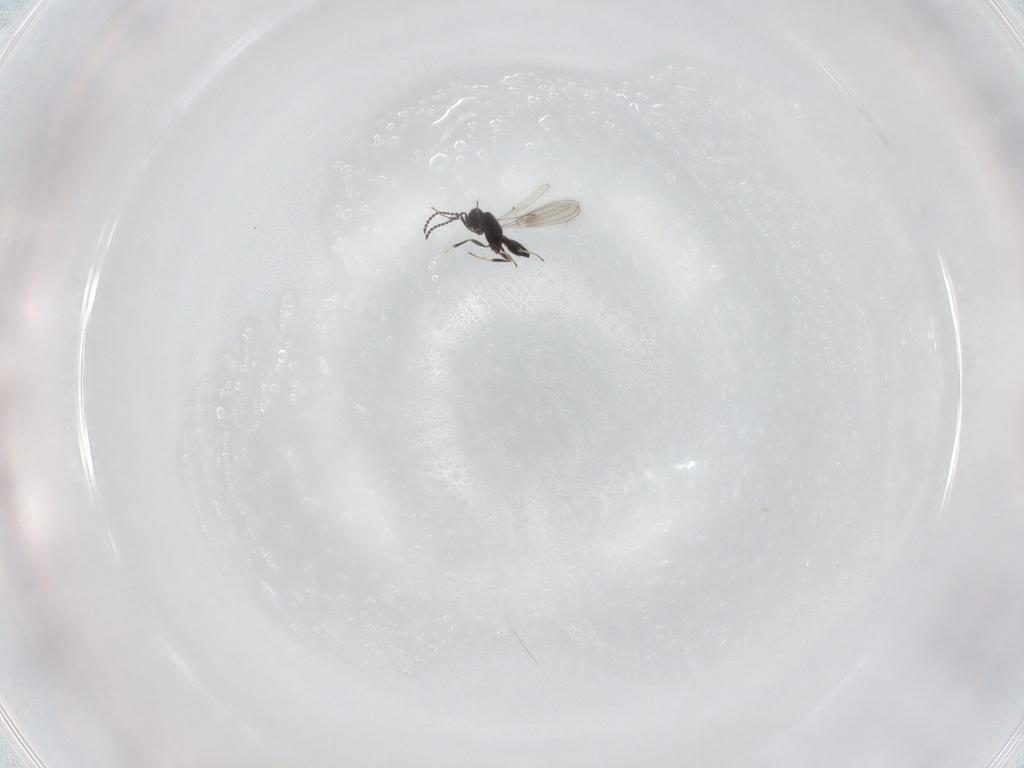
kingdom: Animalia
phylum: Arthropoda
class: Insecta
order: Hymenoptera
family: Scelionidae
